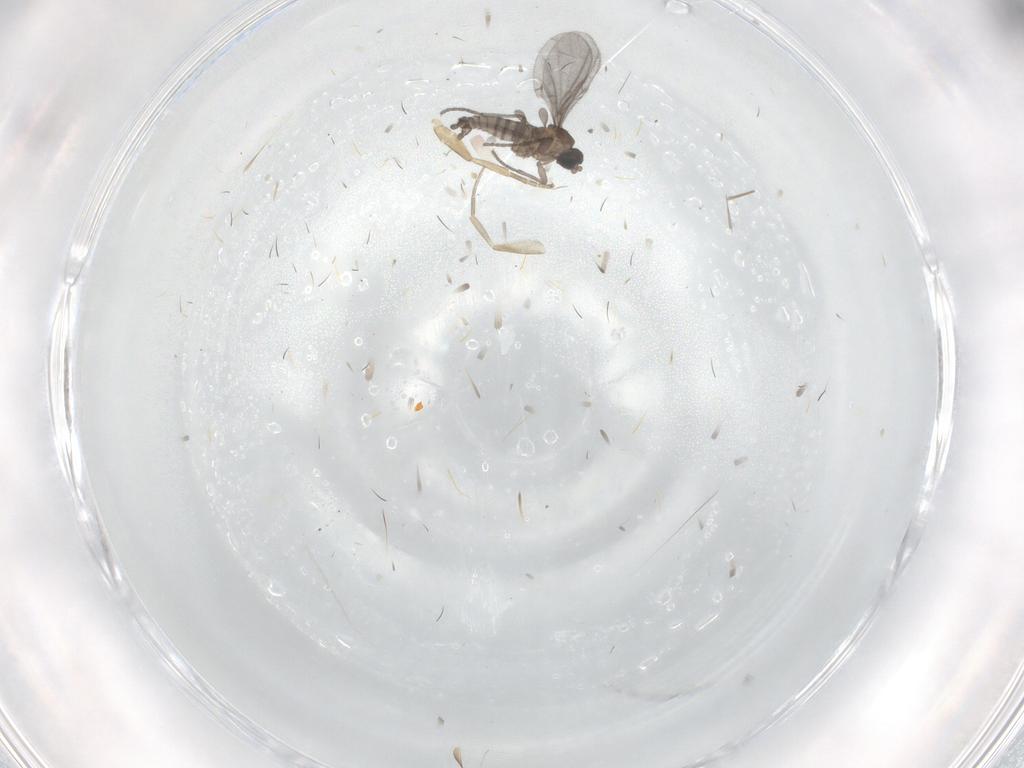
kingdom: Animalia
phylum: Arthropoda
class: Insecta
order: Diptera
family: Sciaridae
